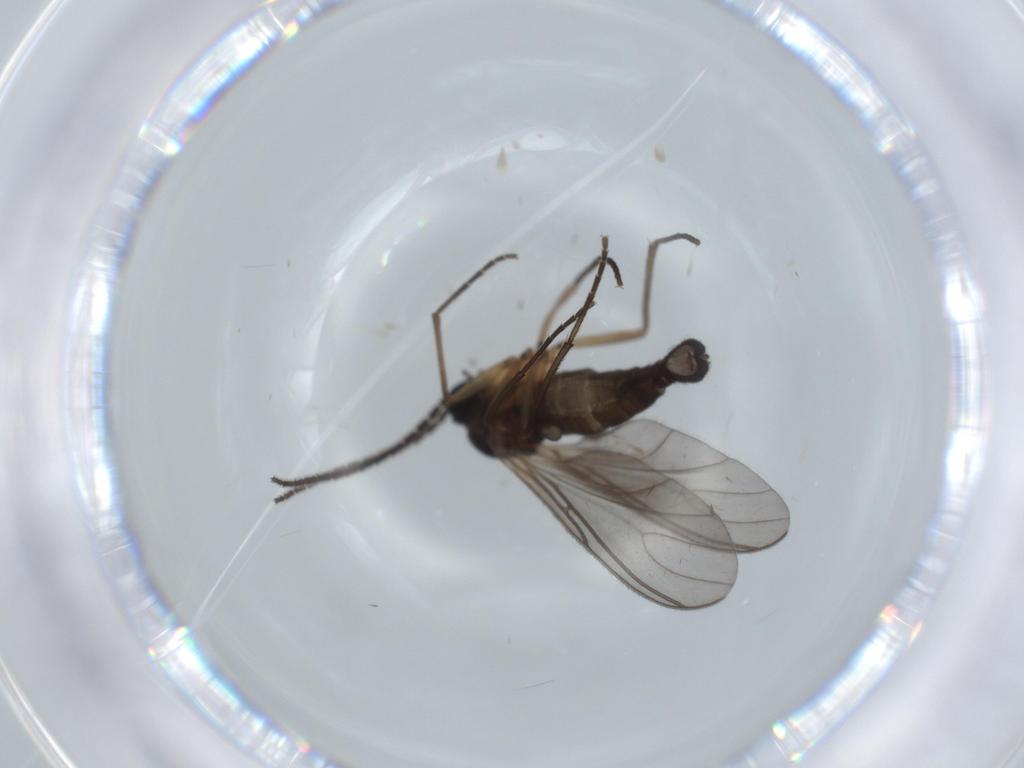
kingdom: Animalia
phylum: Arthropoda
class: Insecta
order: Diptera
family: Sciaridae
